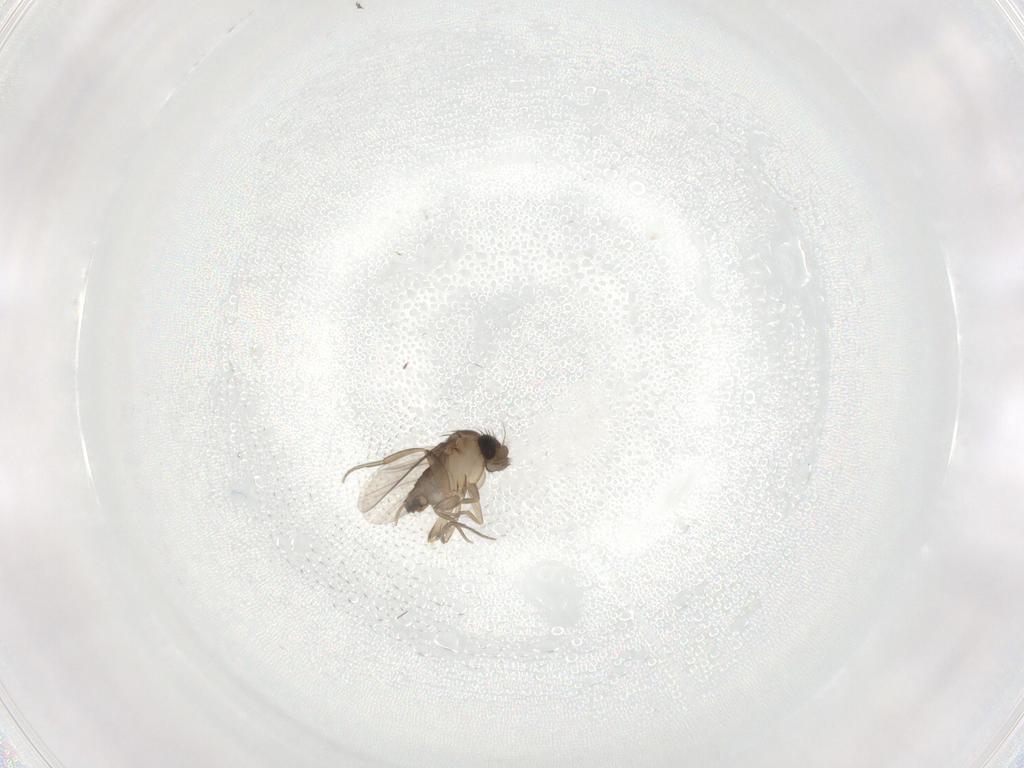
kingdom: Animalia
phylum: Arthropoda
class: Insecta
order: Diptera
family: Phoridae
